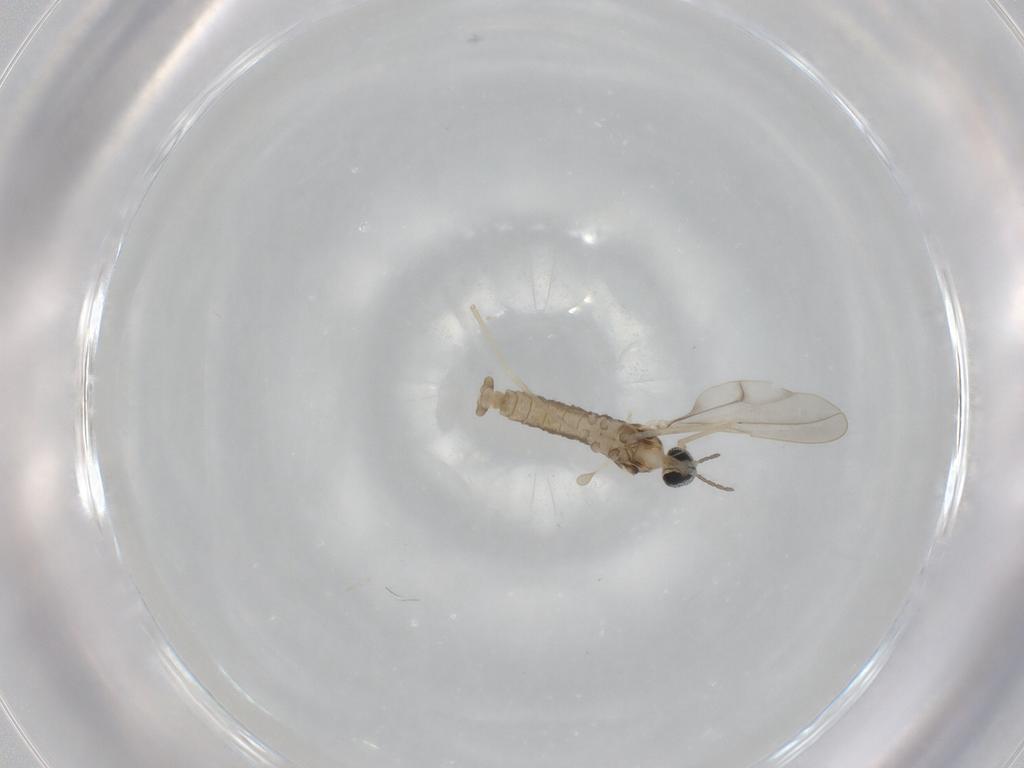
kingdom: Animalia
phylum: Arthropoda
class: Insecta
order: Diptera
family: Cecidomyiidae
